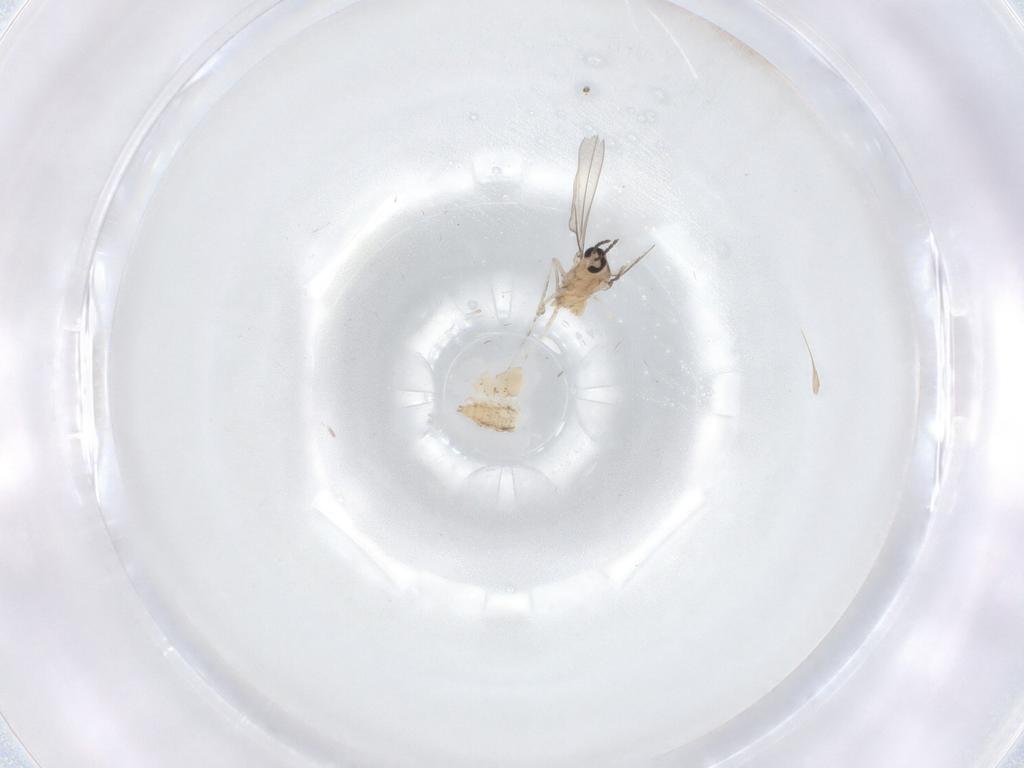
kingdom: Animalia
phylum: Arthropoda
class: Insecta
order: Diptera
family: Cecidomyiidae
